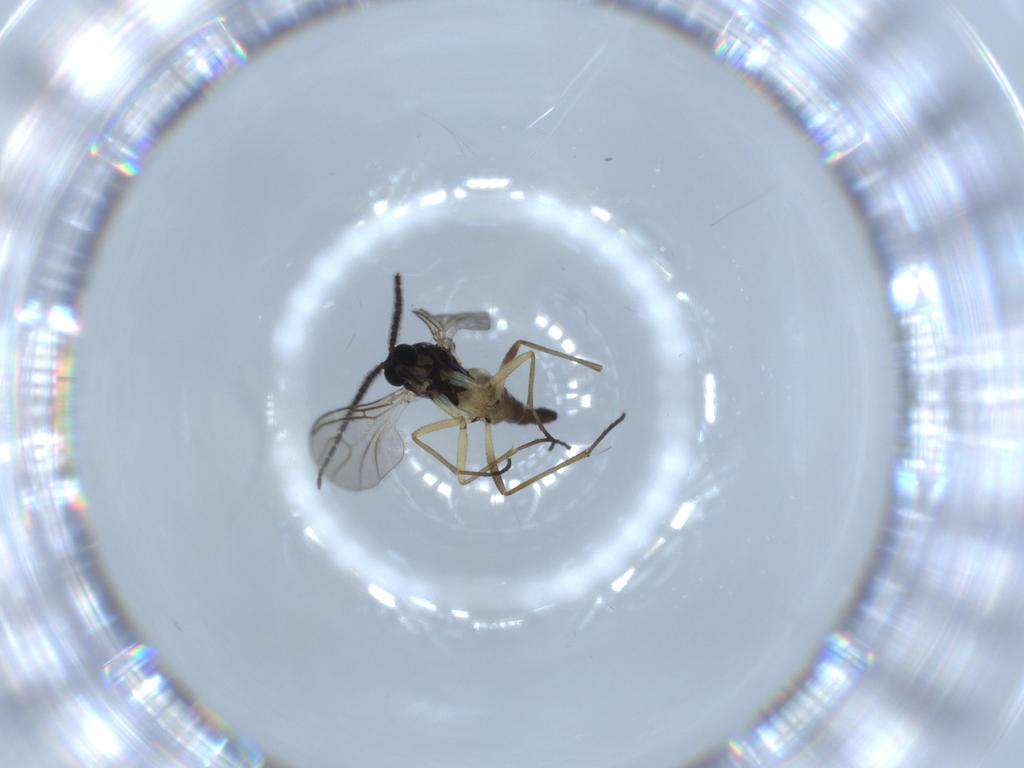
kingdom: Animalia
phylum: Arthropoda
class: Insecta
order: Diptera
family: Sciaridae
